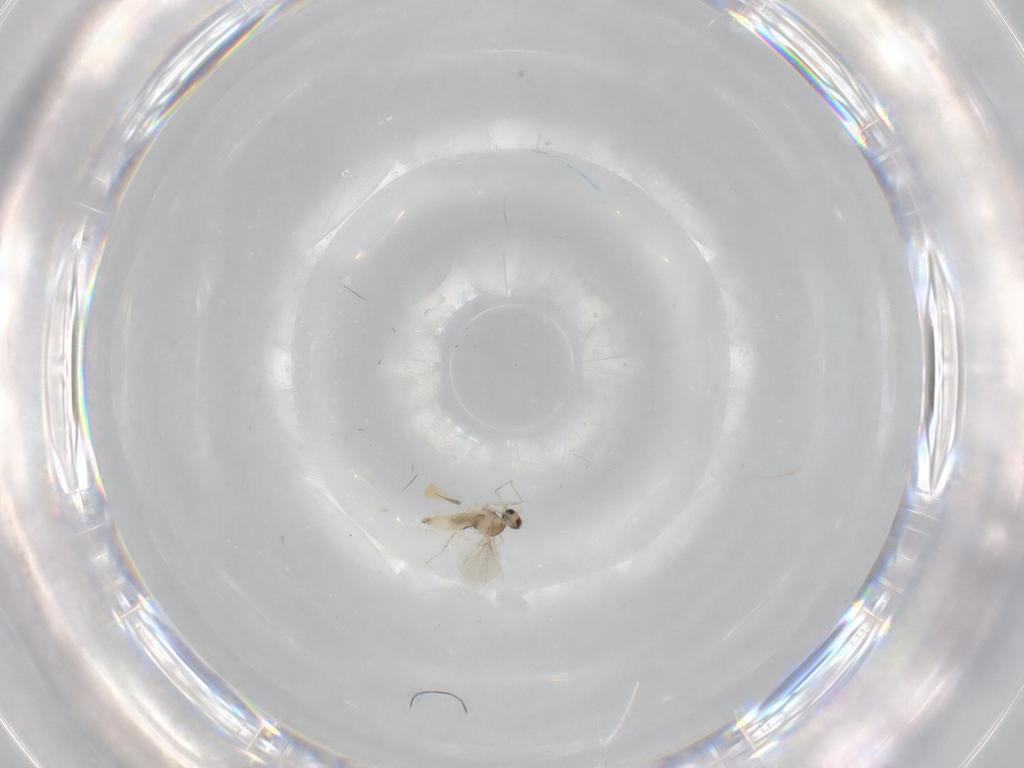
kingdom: Animalia
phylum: Arthropoda
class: Insecta
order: Diptera
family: Cecidomyiidae
